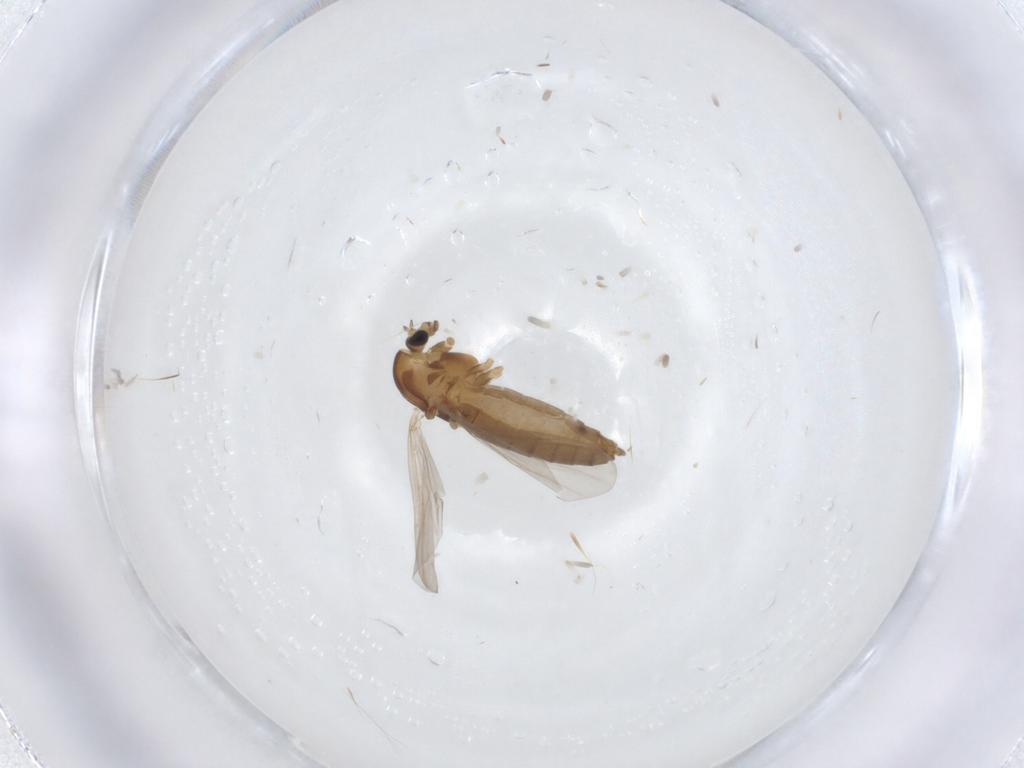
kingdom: Animalia
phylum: Arthropoda
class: Insecta
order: Diptera
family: Chironomidae
